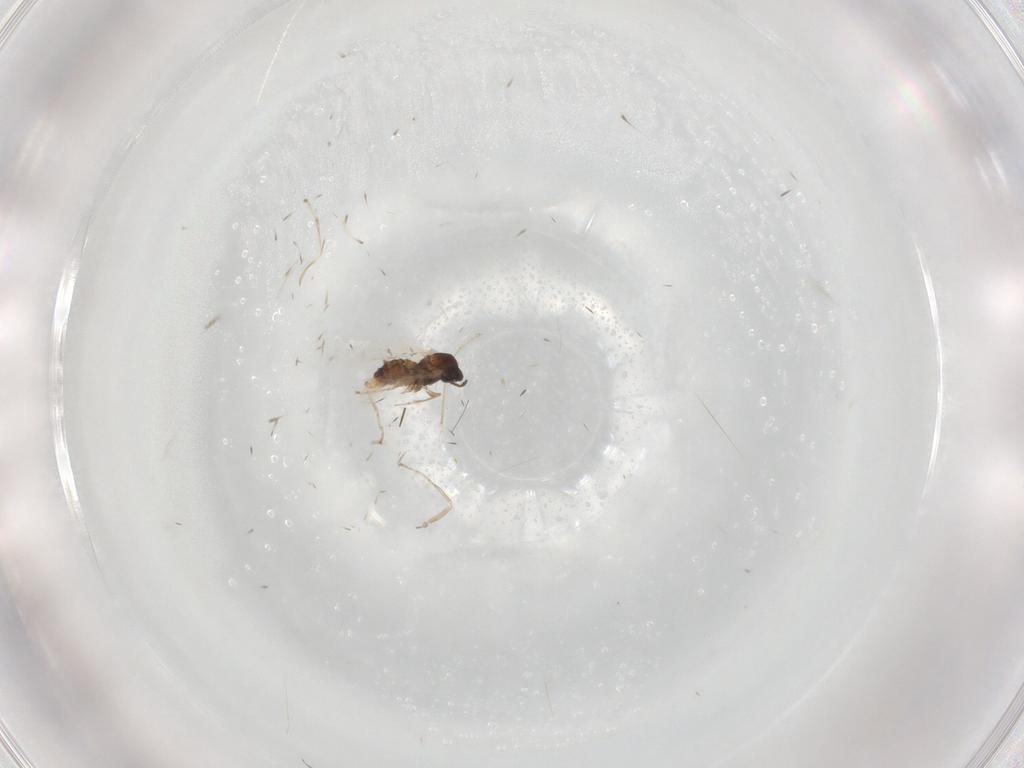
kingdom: Animalia
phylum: Arthropoda
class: Insecta
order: Diptera
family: Cecidomyiidae
